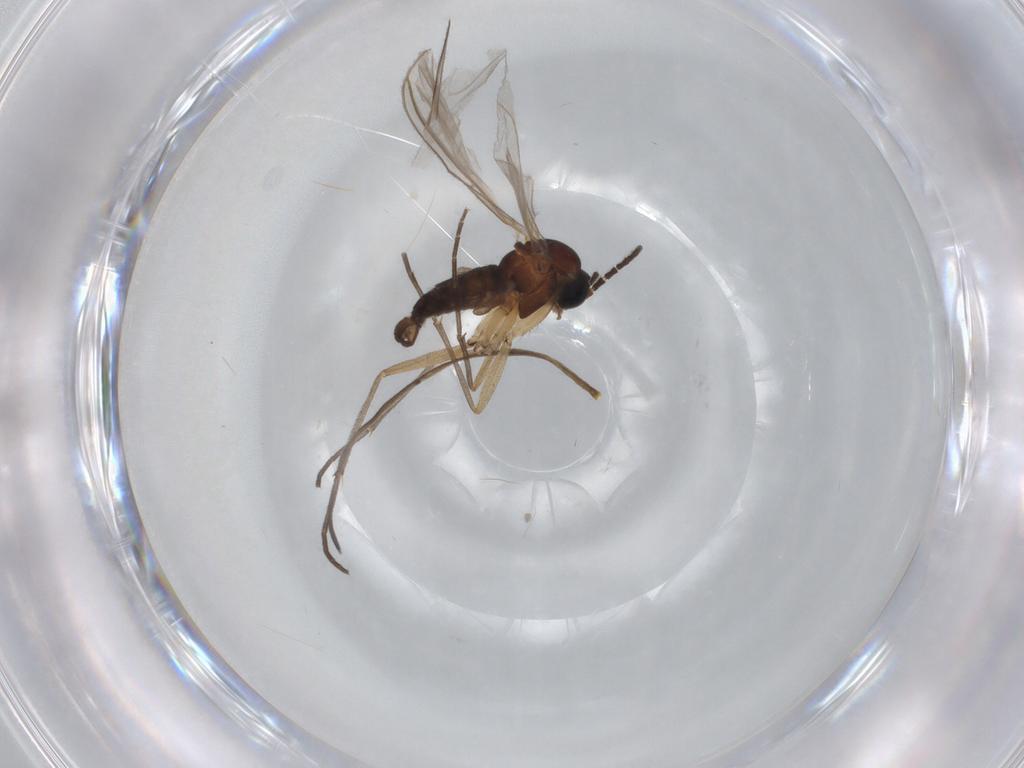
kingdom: Animalia
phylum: Arthropoda
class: Insecta
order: Diptera
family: Sciaridae
